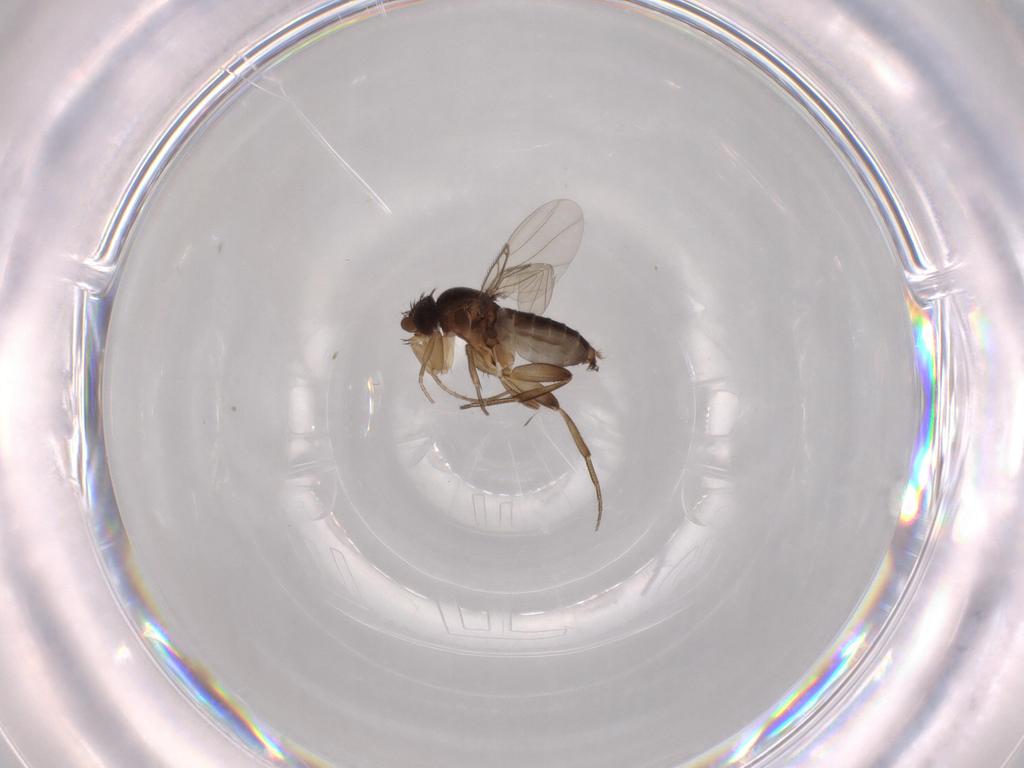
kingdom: Animalia
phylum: Arthropoda
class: Insecta
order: Diptera
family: Phoridae
